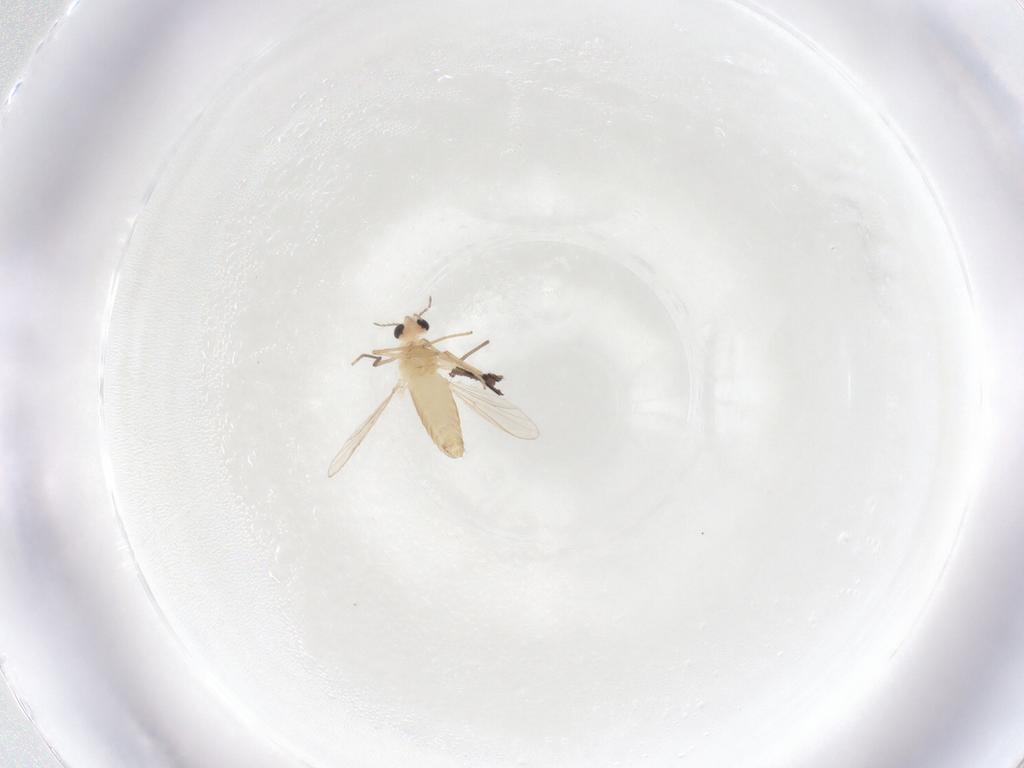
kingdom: Animalia
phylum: Arthropoda
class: Insecta
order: Diptera
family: Chironomidae
